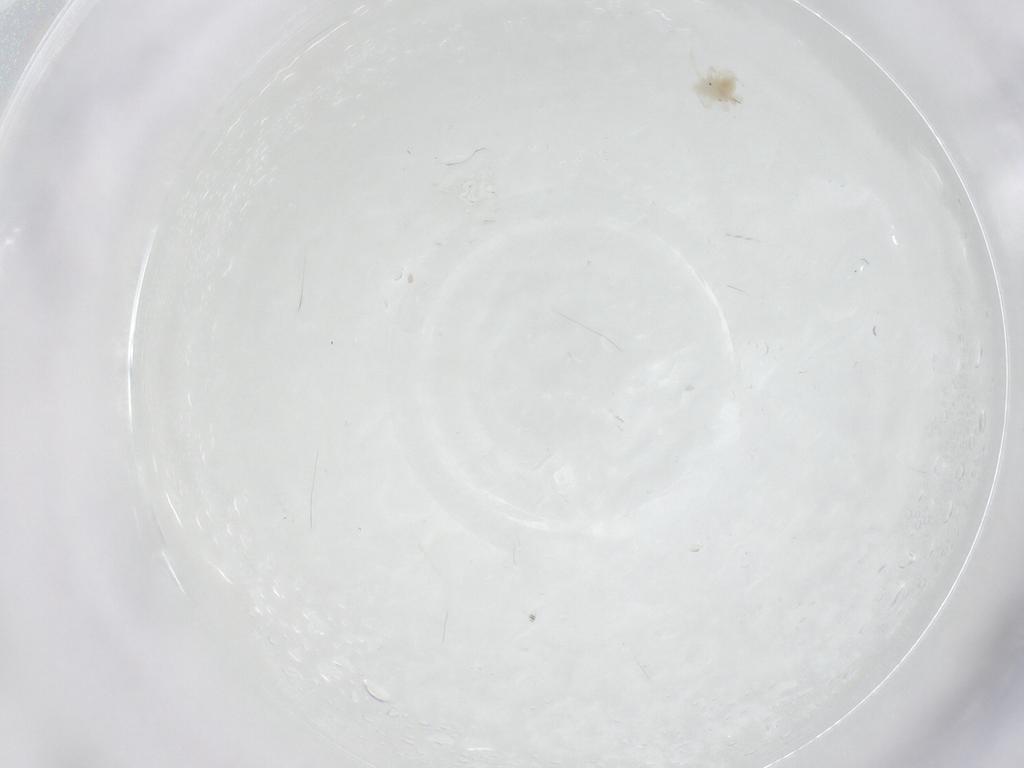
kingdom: Animalia
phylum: Arthropoda
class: Arachnida
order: Trombidiformes
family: Anystidae
